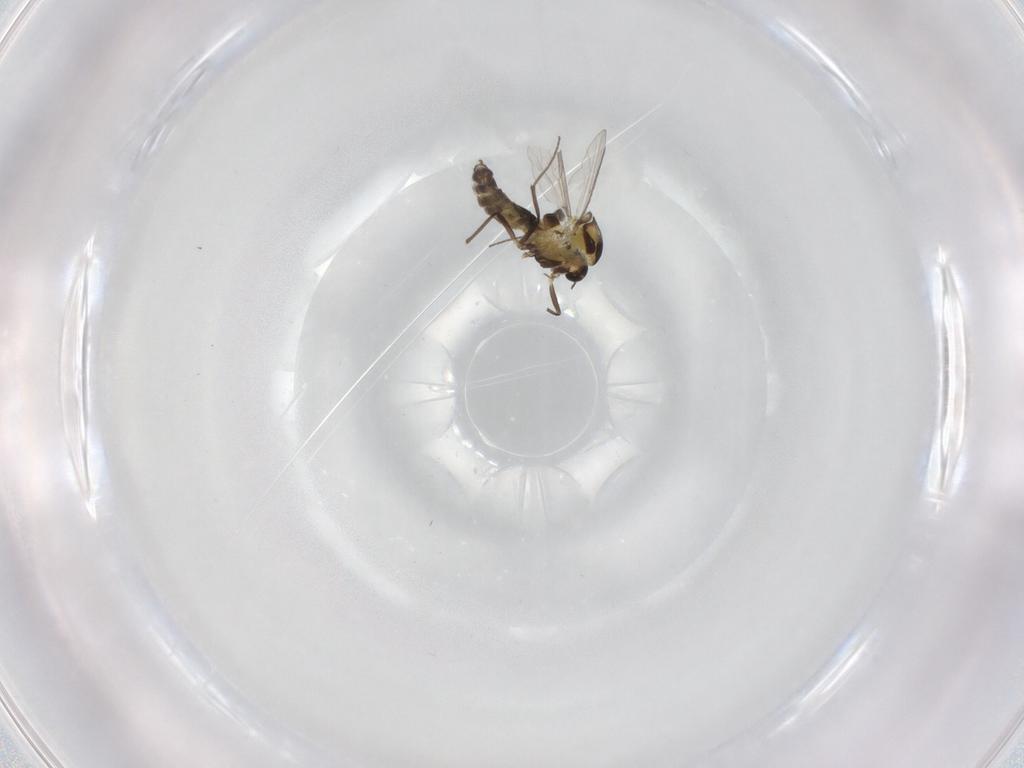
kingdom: Animalia
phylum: Arthropoda
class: Insecta
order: Diptera
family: Chironomidae
